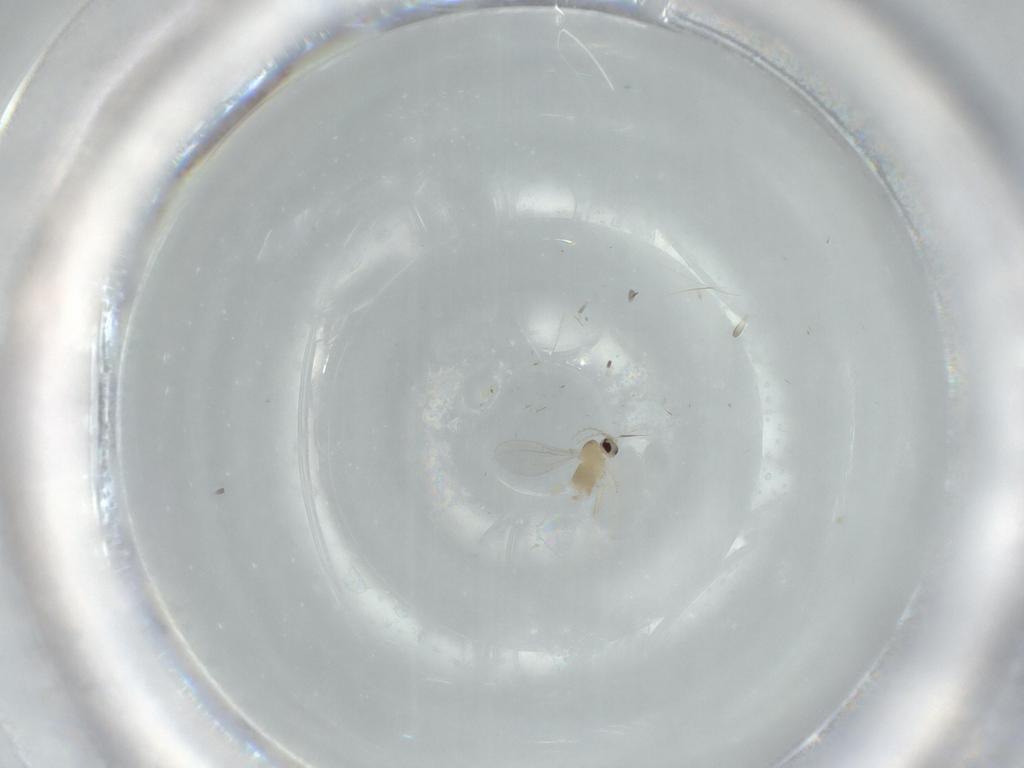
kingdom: Animalia
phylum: Arthropoda
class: Insecta
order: Diptera
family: Cecidomyiidae
